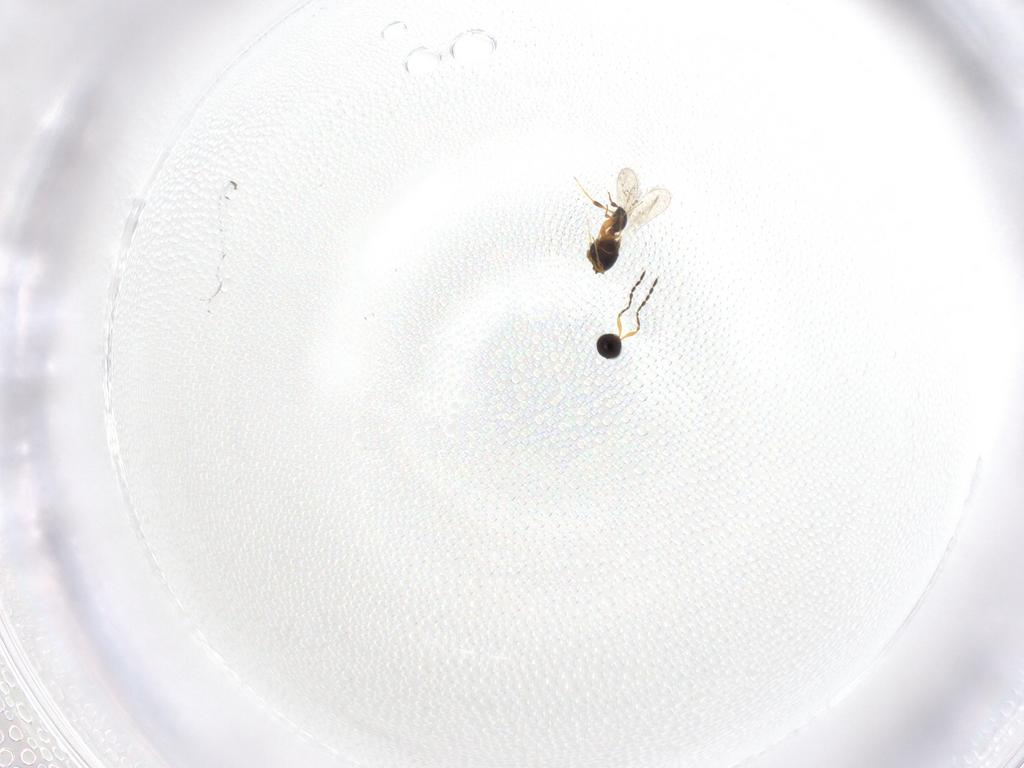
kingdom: Animalia
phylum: Arthropoda
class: Insecta
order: Hymenoptera
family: Platygastridae
